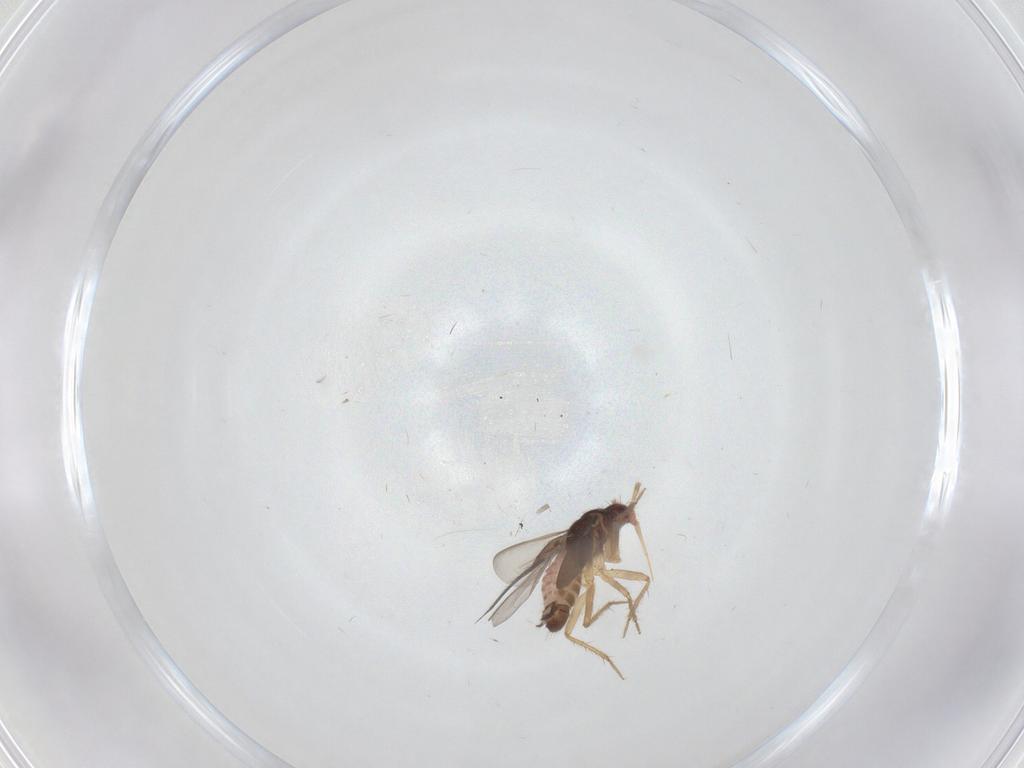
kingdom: Animalia
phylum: Arthropoda
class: Insecta
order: Hemiptera
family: Ceratocombidae
